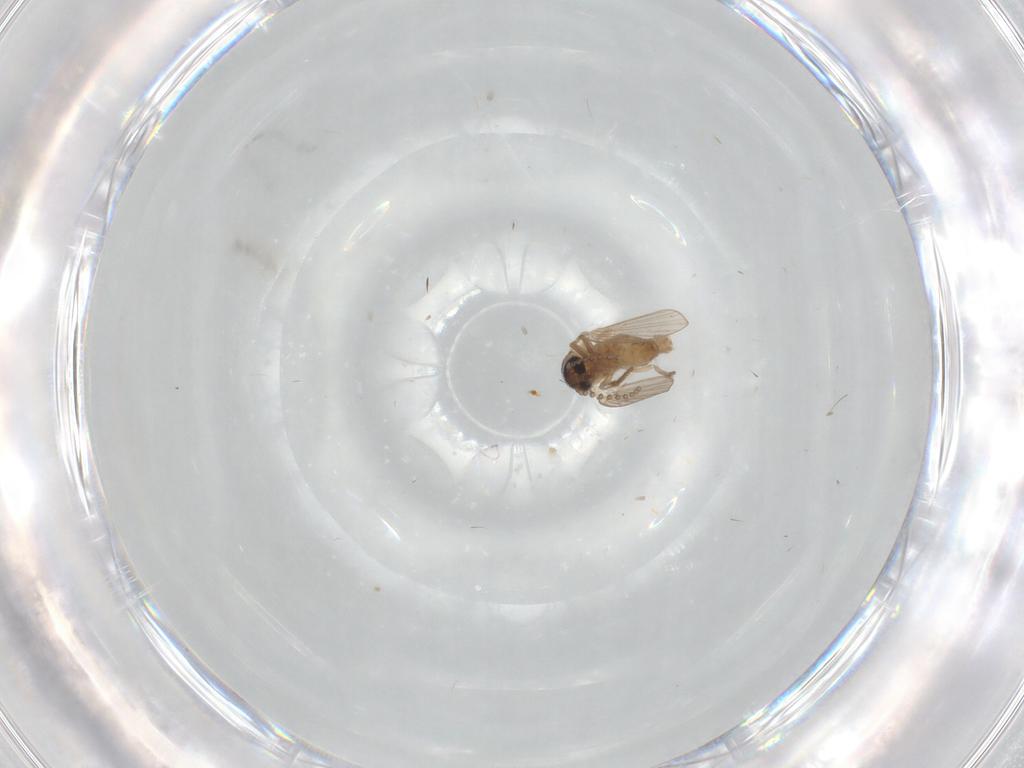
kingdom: Animalia
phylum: Arthropoda
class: Insecta
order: Diptera
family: Psychodidae
